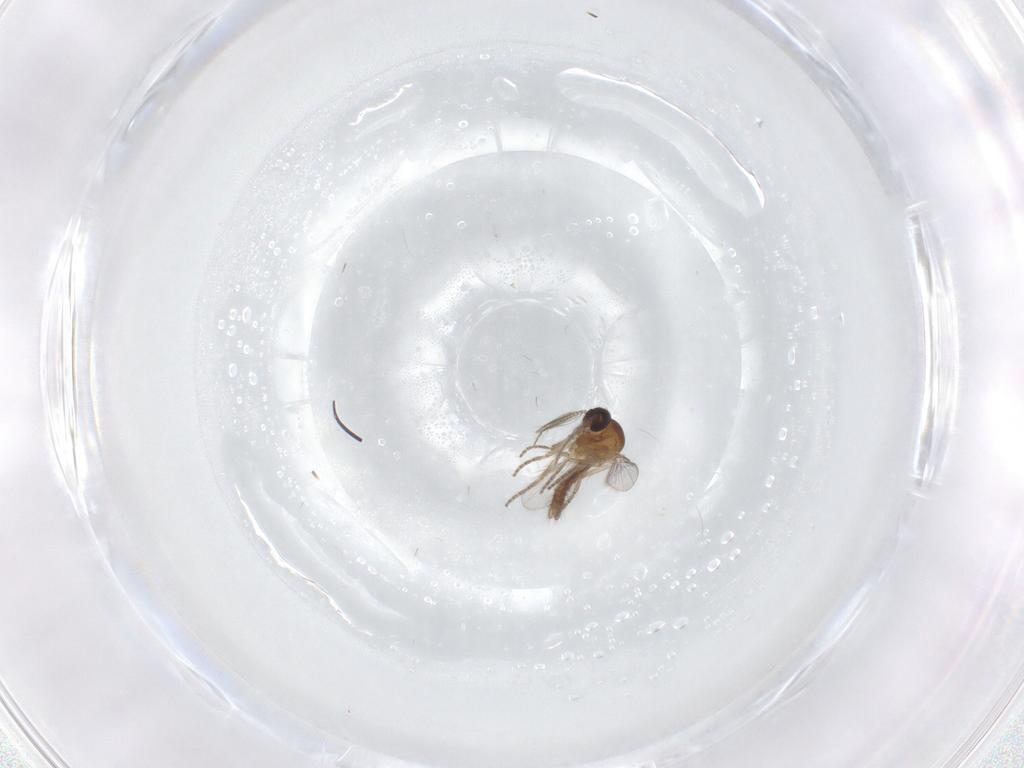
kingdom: Animalia
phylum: Arthropoda
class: Insecta
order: Diptera
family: Ceratopogonidae
